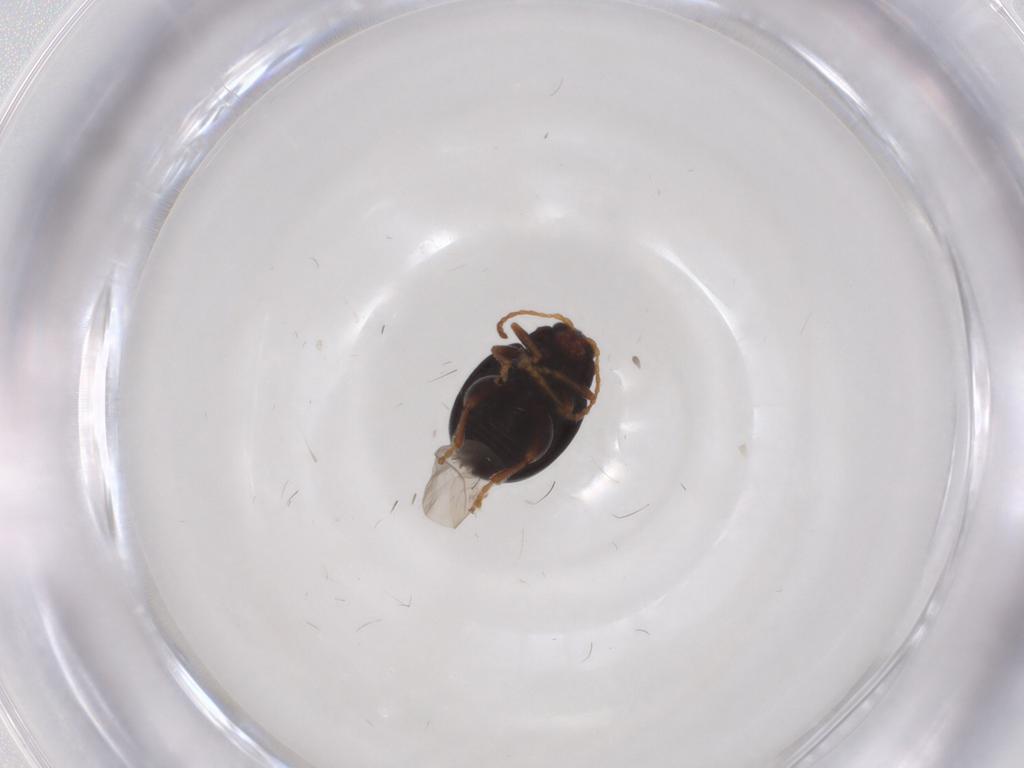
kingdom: Animalia
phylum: Arthropoda
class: Insecta
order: Coleoptera
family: Chrysomelidae
